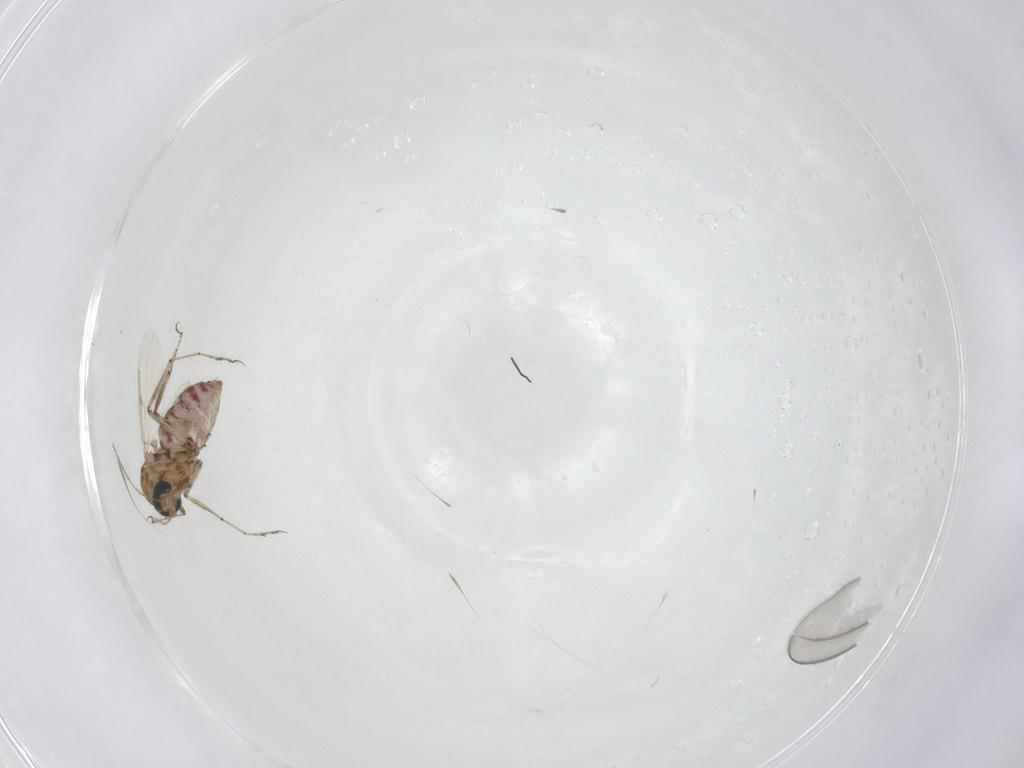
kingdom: Animalia
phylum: Arthropoda
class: Insecta
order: Diptera
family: Ceratopogonidae
